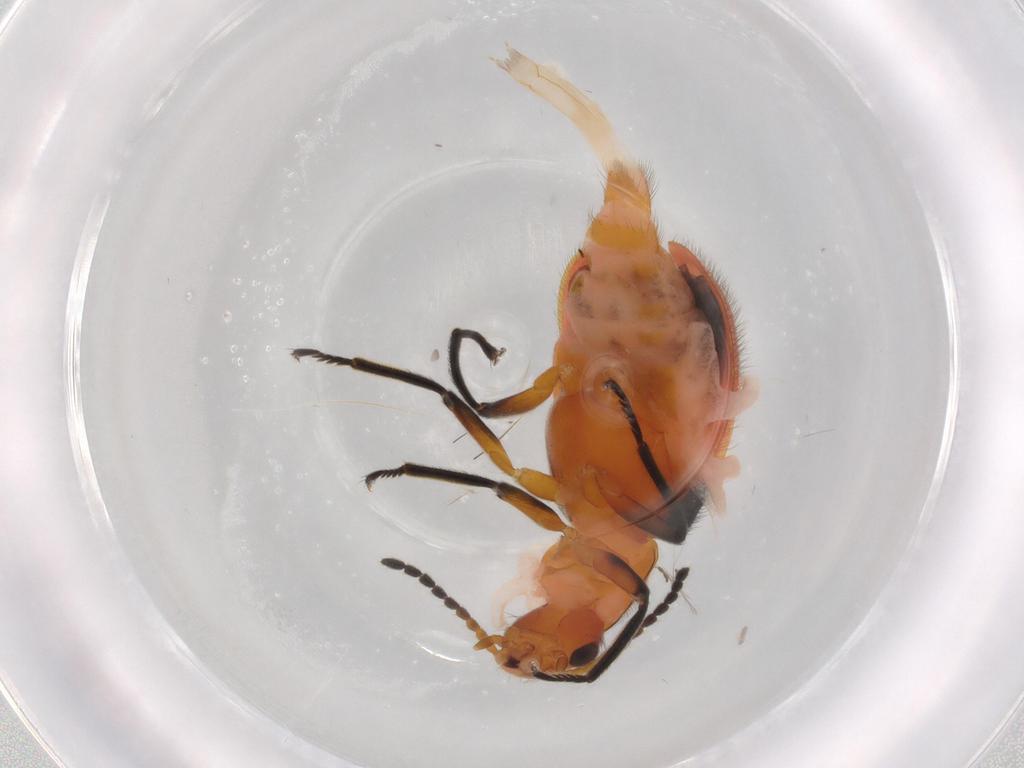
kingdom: Animalia
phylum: Arthropoda
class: Insecta
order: Coleoptera
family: Melyridae
